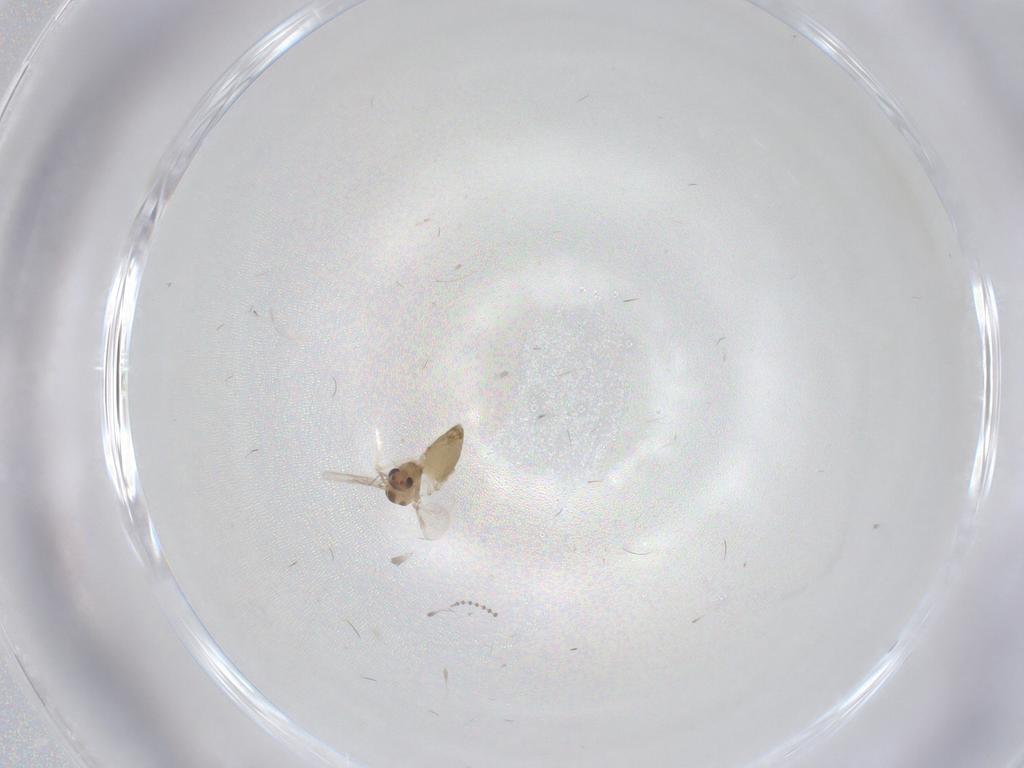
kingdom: Animalia
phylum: Arthropoda
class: Insecta
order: Diptera
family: Chironomidae
